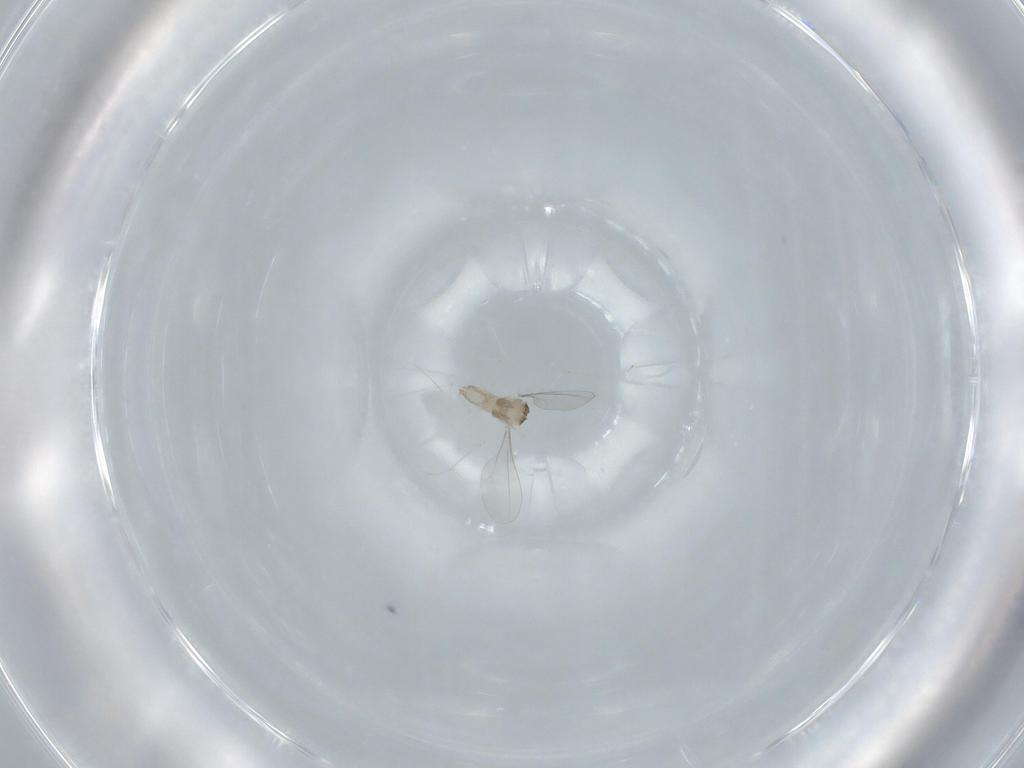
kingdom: Animalia
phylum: Arthropoda
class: Insecta
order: Diptera
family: Cecidomyiidae
